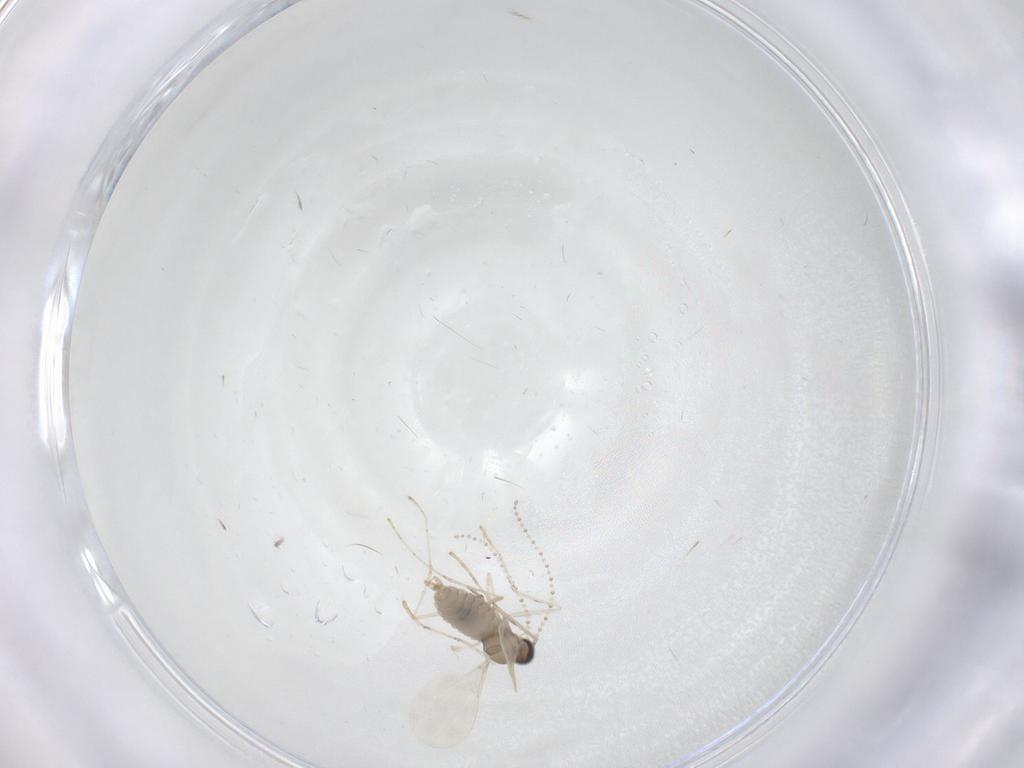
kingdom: Animalia
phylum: Arthropoda
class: Insecta
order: Diptera
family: Cecidomyiidae
